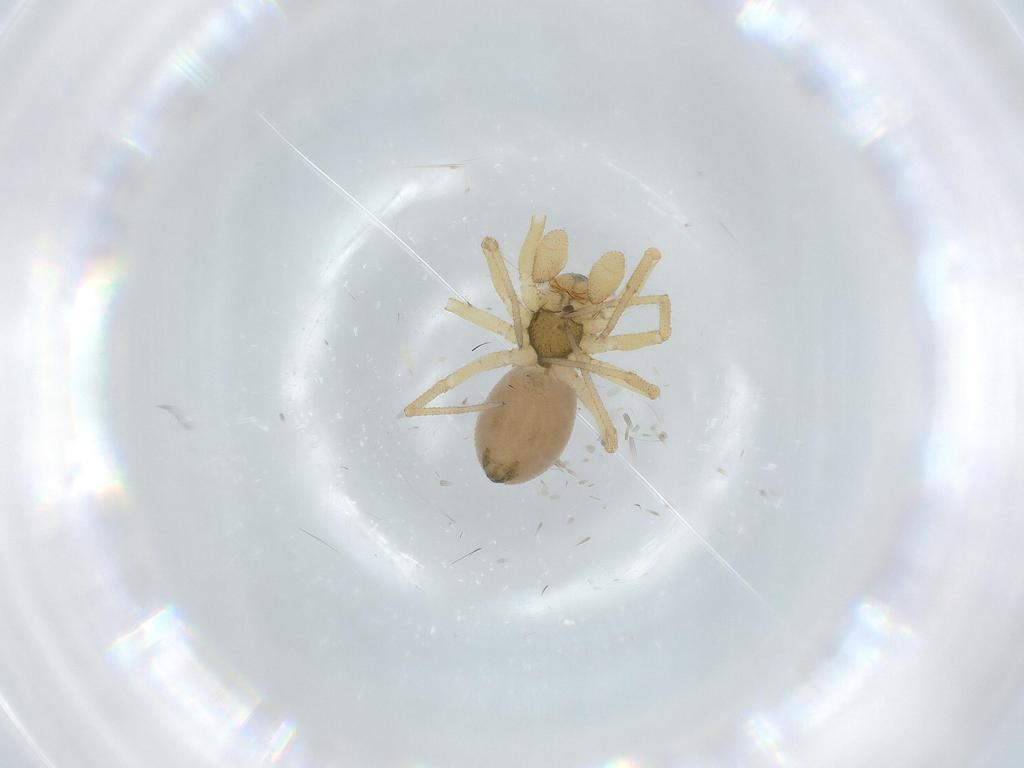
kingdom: Animalia
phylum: Arthropoda
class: Arachnida
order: Araneae
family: Linyphiidae
